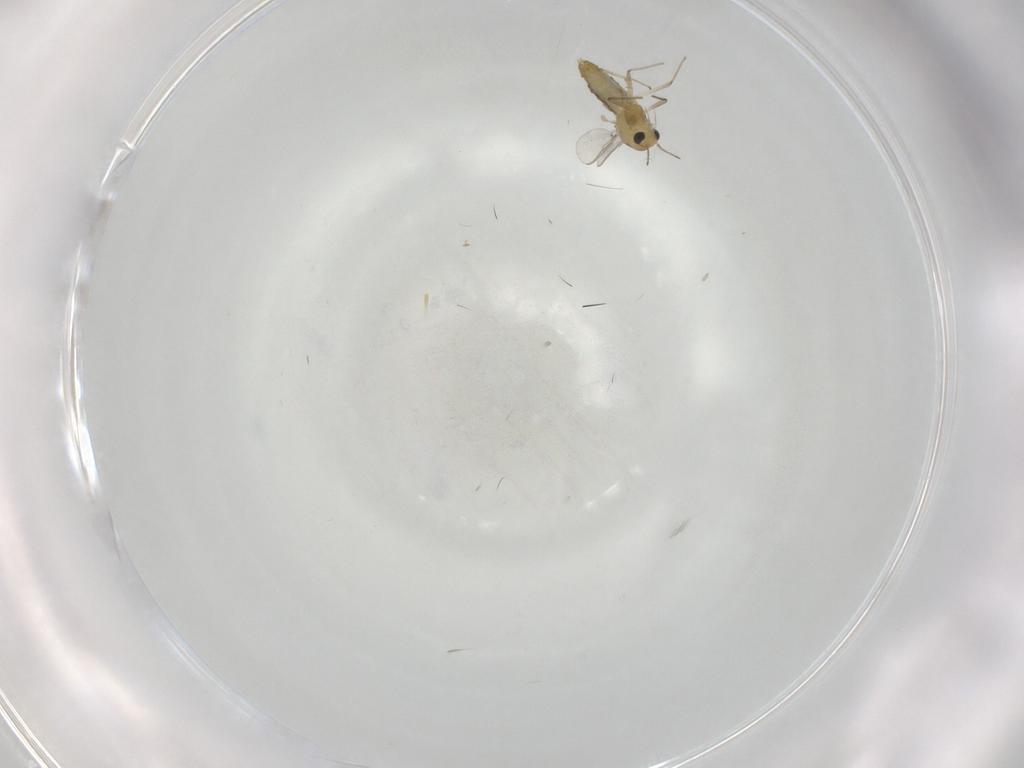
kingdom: Animalia
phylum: Arthropoda
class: Insecta
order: Diptera
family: Chironomidae
